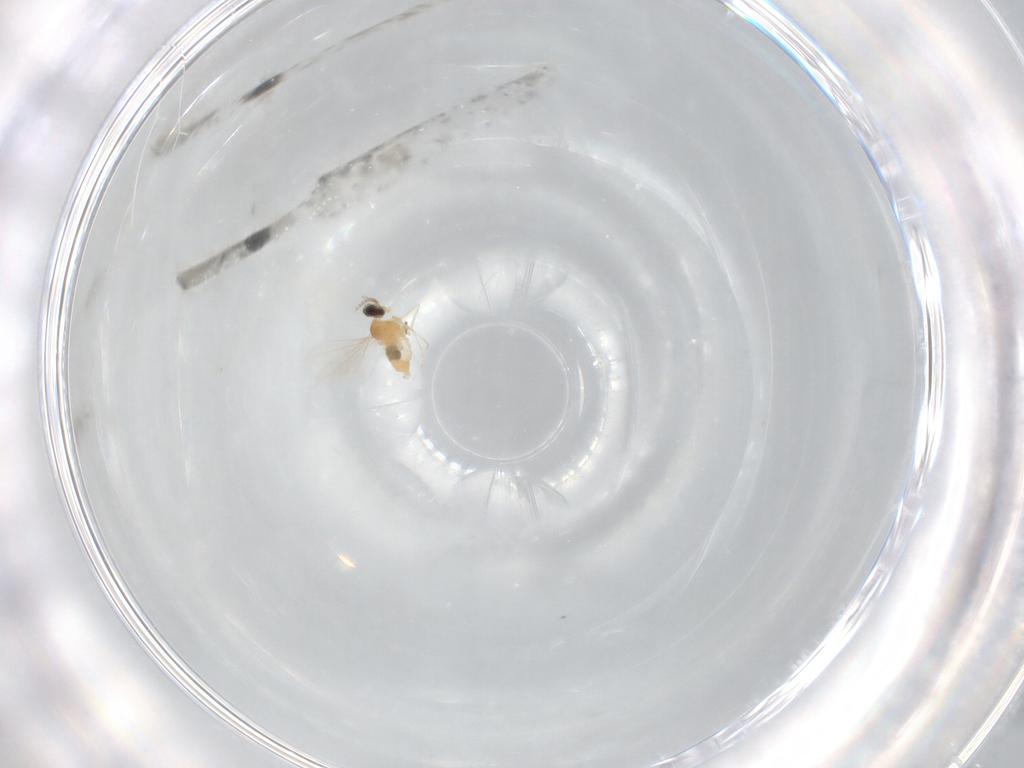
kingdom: Animalia
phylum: Arthropoda
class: Insecta
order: Diptera
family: Cecidomyiidae
